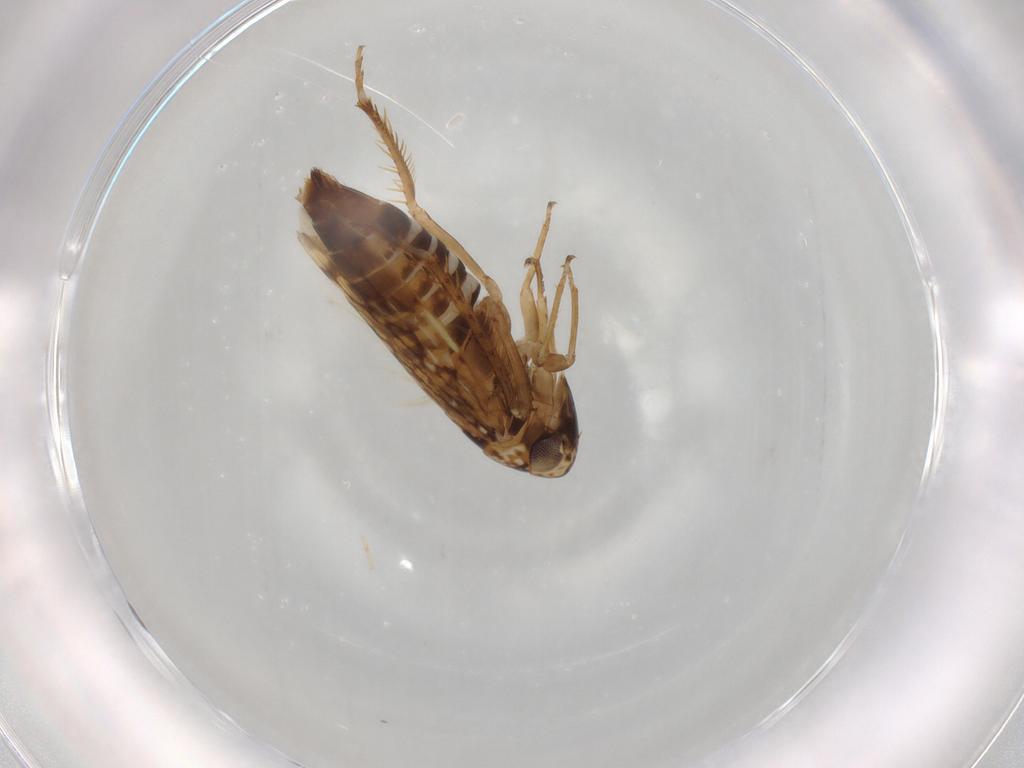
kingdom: Animalia
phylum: Arthropoda
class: Insecta
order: Hemiptera
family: Cicadellidae
